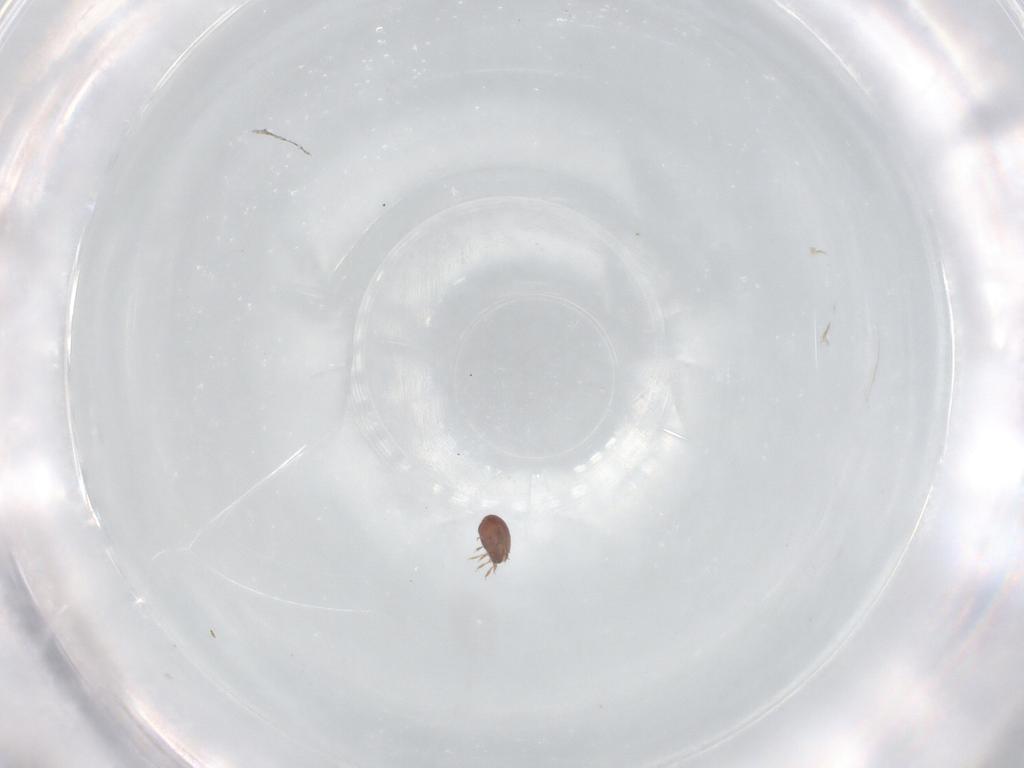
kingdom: Animalia
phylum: Arthropoda
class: Arachnida
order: Sarcoptiformes
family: Tegoribatidae
